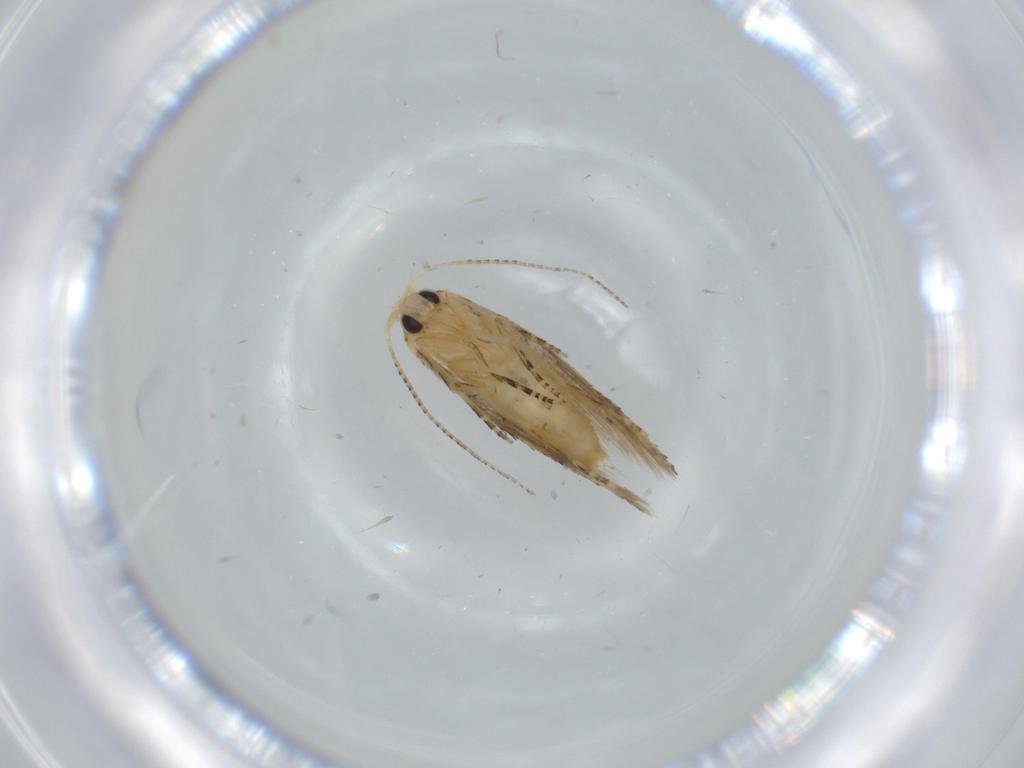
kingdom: Animalia
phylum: Arthropoda
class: Insecta
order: Lepidoptera
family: Bucculatricidae
